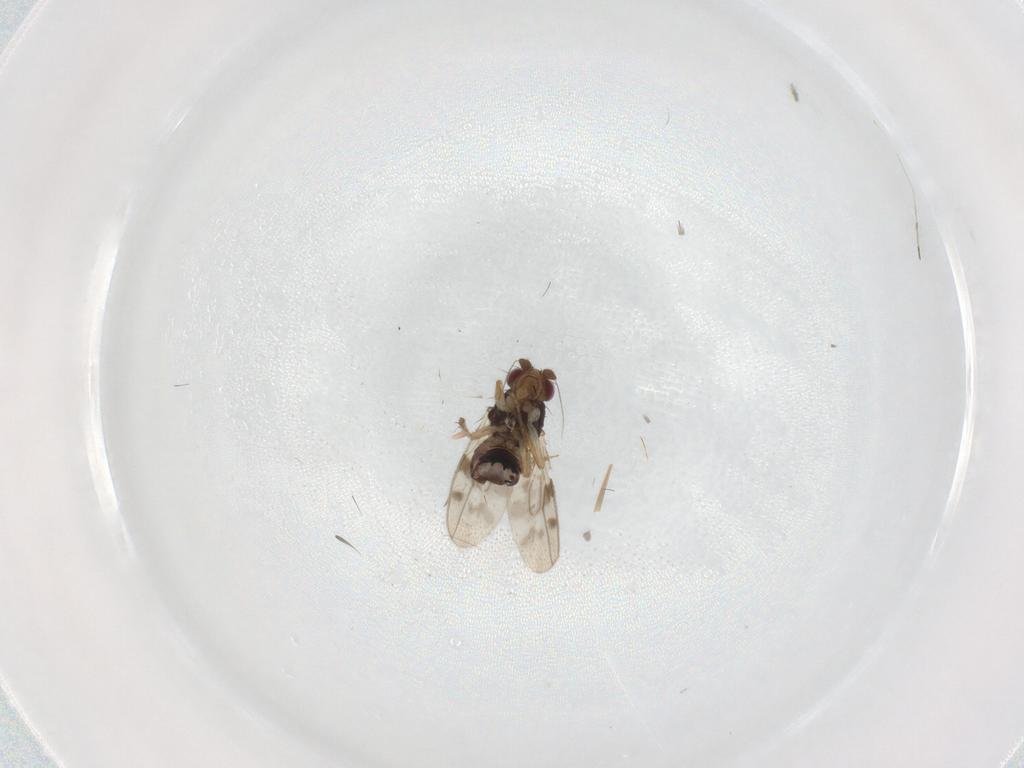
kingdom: Animalia
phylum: Arthropoda
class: Insecta
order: Diptera
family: Sphaeroceridae
